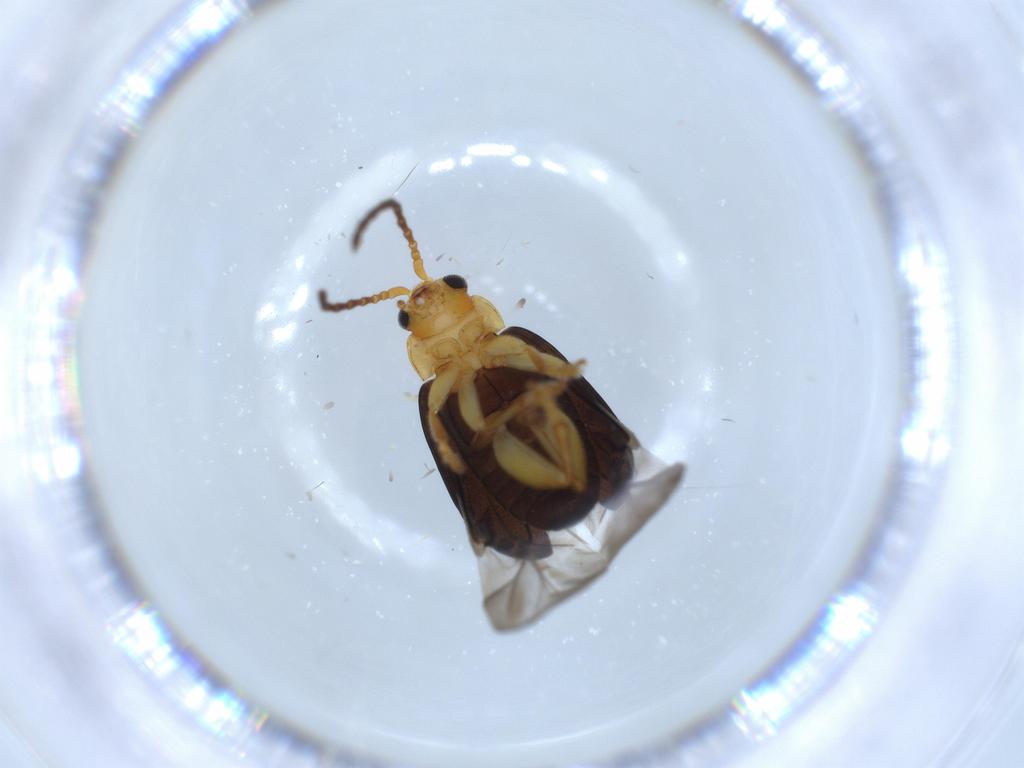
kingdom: Animalia
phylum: Arthropoda
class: Insecta
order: Coleoptera
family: Chrysomelidae
